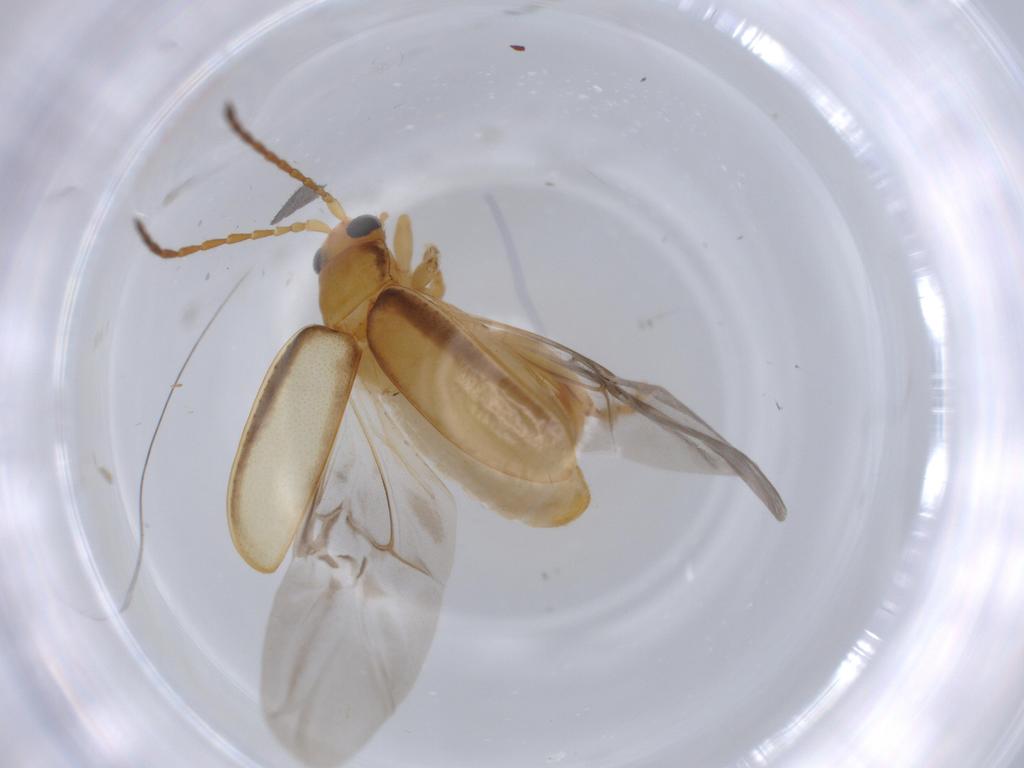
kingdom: Animalia
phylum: Arthropoda
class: Insecta
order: Coleoptera
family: Chrysomelidae
